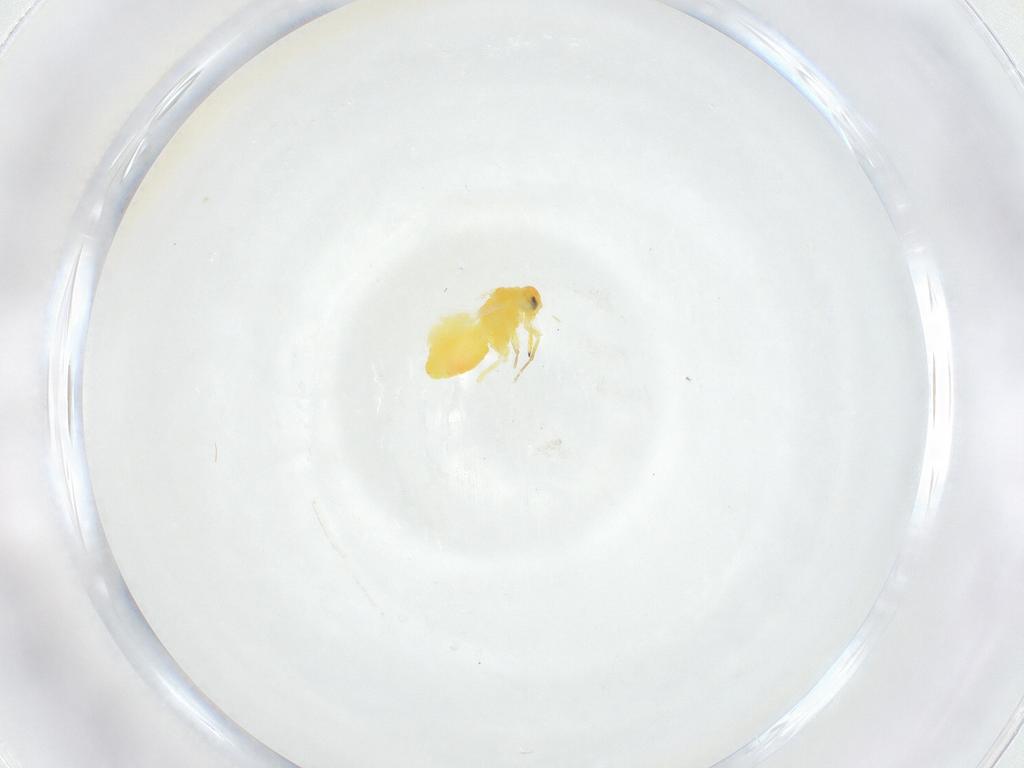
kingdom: Animalia
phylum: Arthropoda
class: Insecta
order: Hemiptera
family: Aleyrodidae
